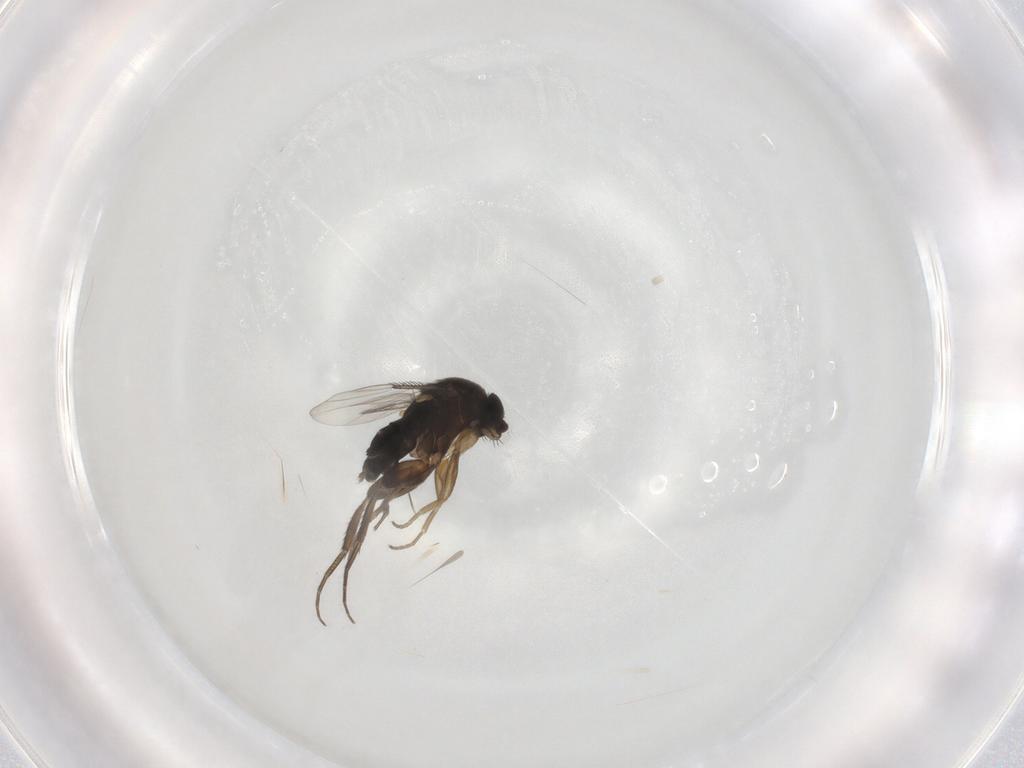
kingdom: Animalia
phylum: Arthropoda
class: Insecta
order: Diptera
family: Phoridae
